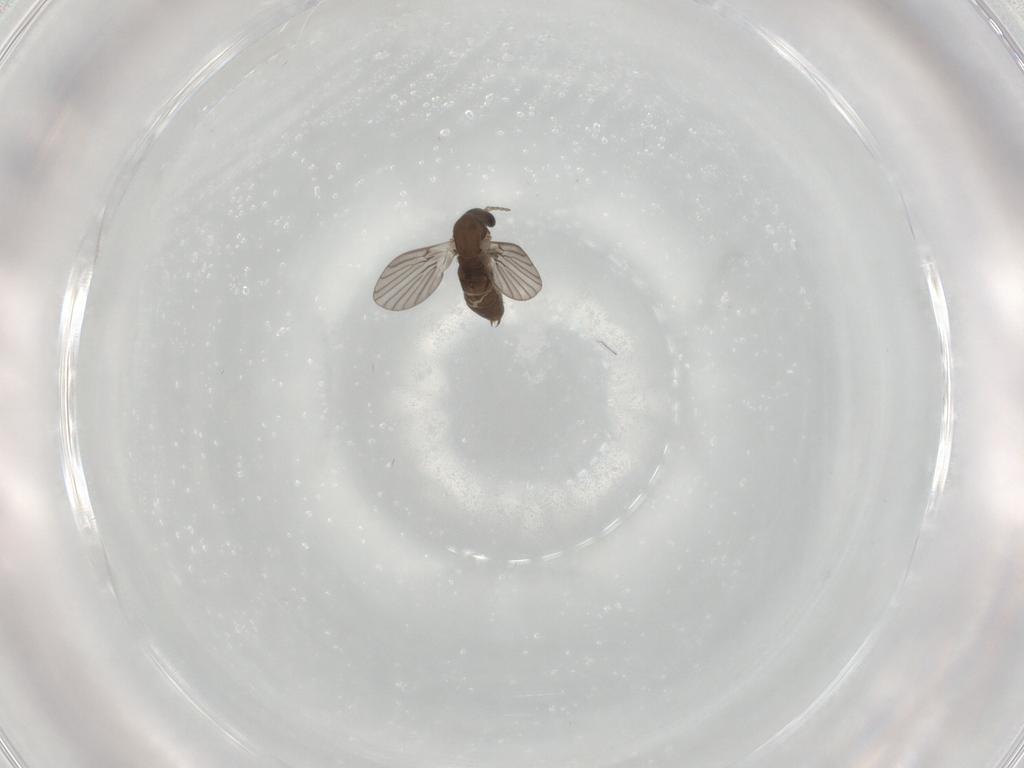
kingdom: Animalia
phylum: Arthropoda
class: Insecta
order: Diptera
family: Psychodidae
